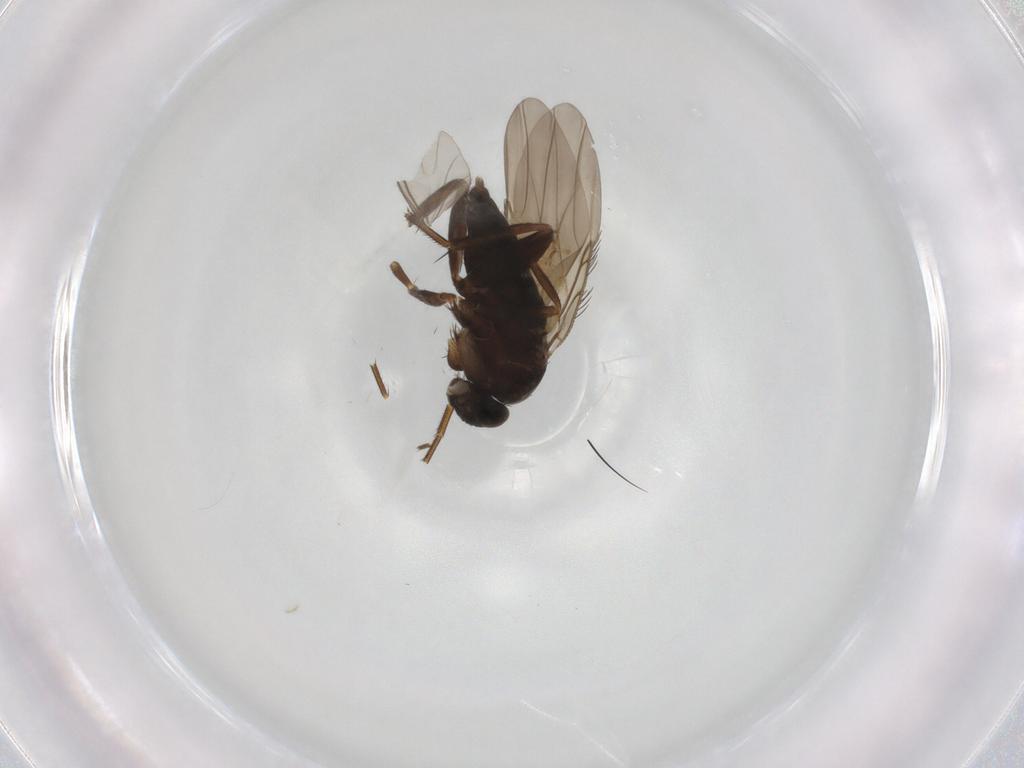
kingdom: Animalia
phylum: Arthropoda
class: Insecta
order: Diptera
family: Phoridae
